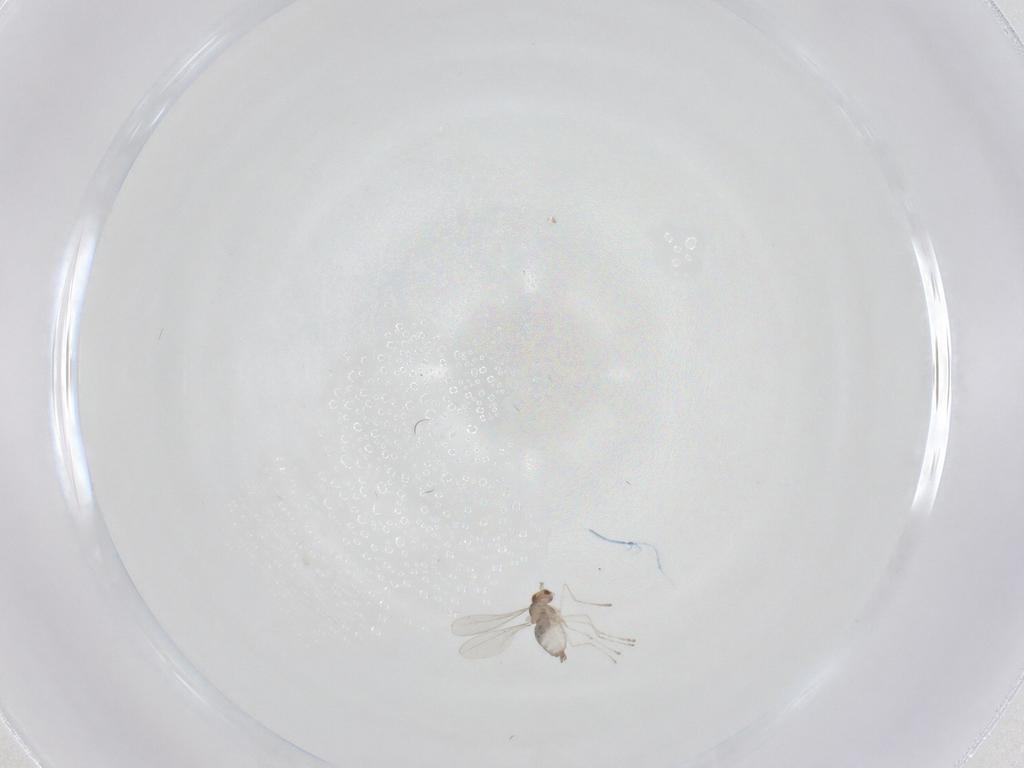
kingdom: Animalia
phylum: Arthropoda
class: Insecta
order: Diptera
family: Cecidomyiidae
